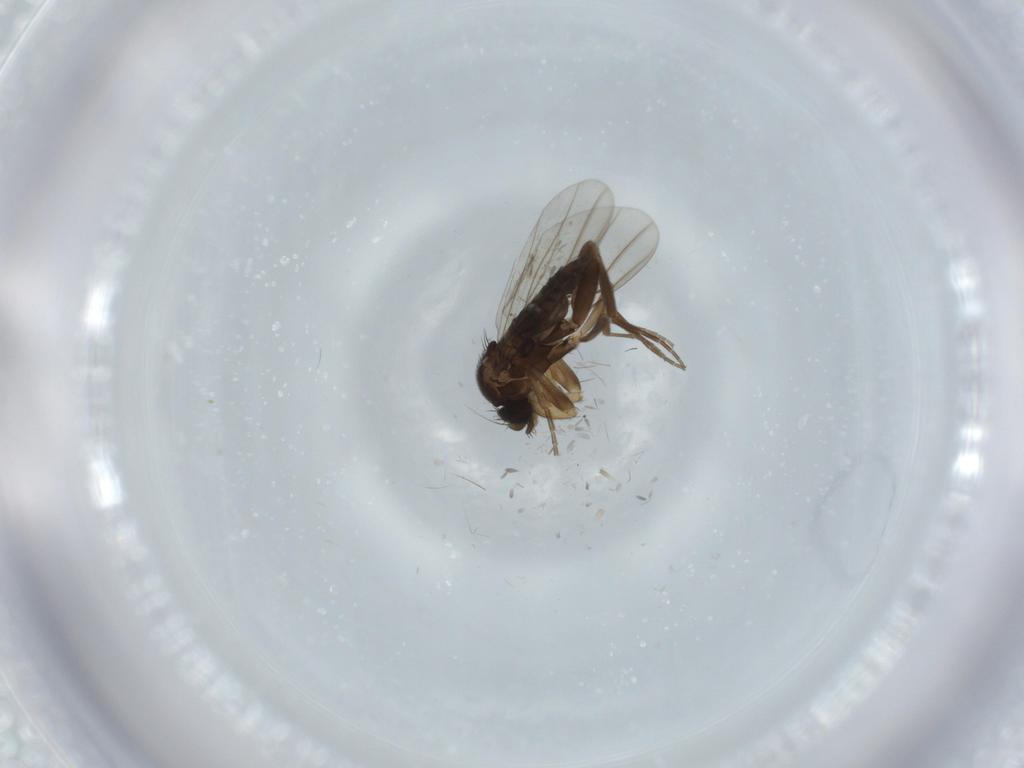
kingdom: Animalia
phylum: Arthropoda
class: Insecta
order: Diptera
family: Phoridae
